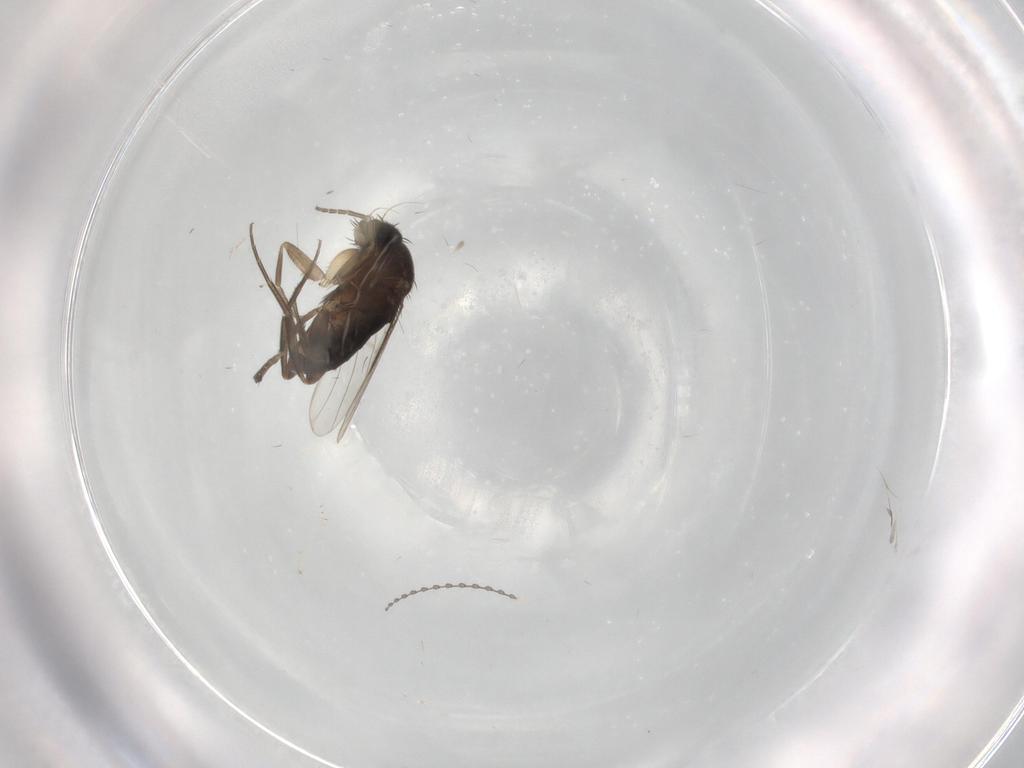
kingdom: Animalia
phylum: Arthropoda
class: Insecta
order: Diptera
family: Phoridae
